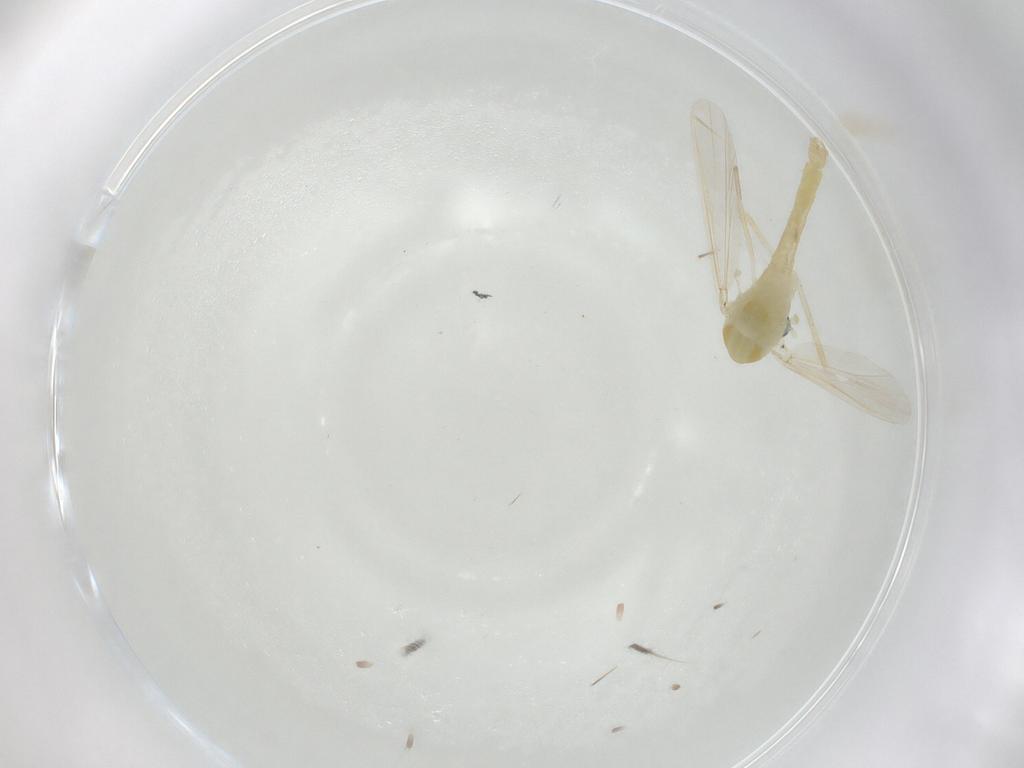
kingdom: Animalia
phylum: Arthropoda
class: Insecta
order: Diptera
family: Chironomidae
